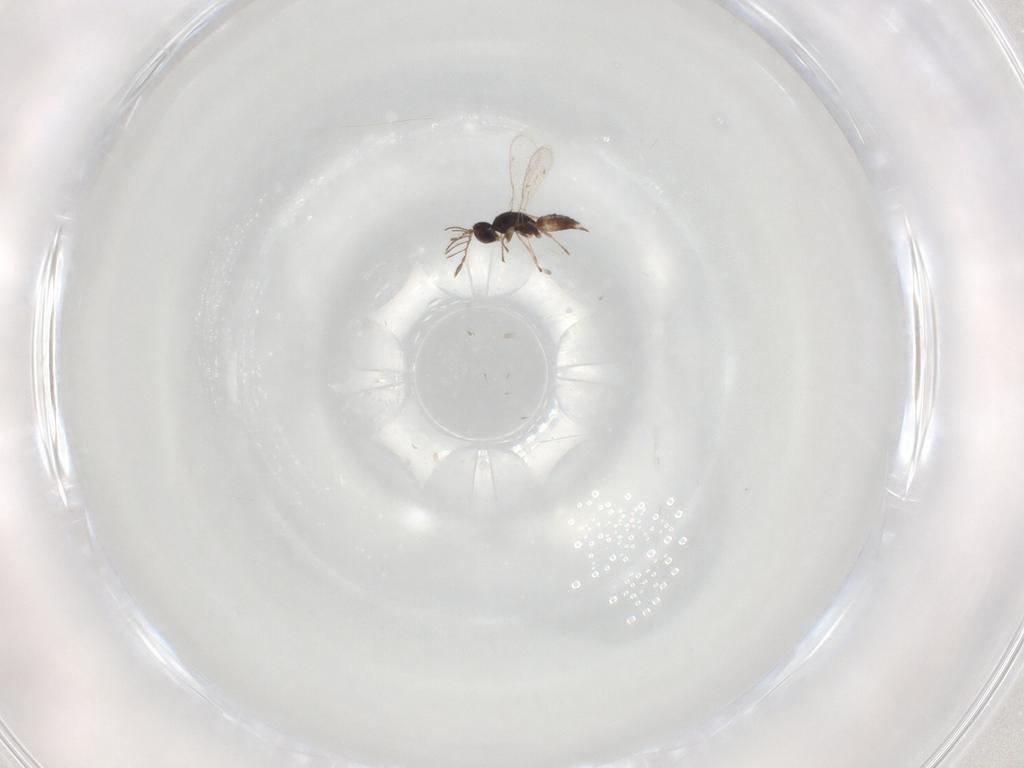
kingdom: Animalia
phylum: Arthropoda
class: Insecta
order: Hymenoptera
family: Eulophidae
